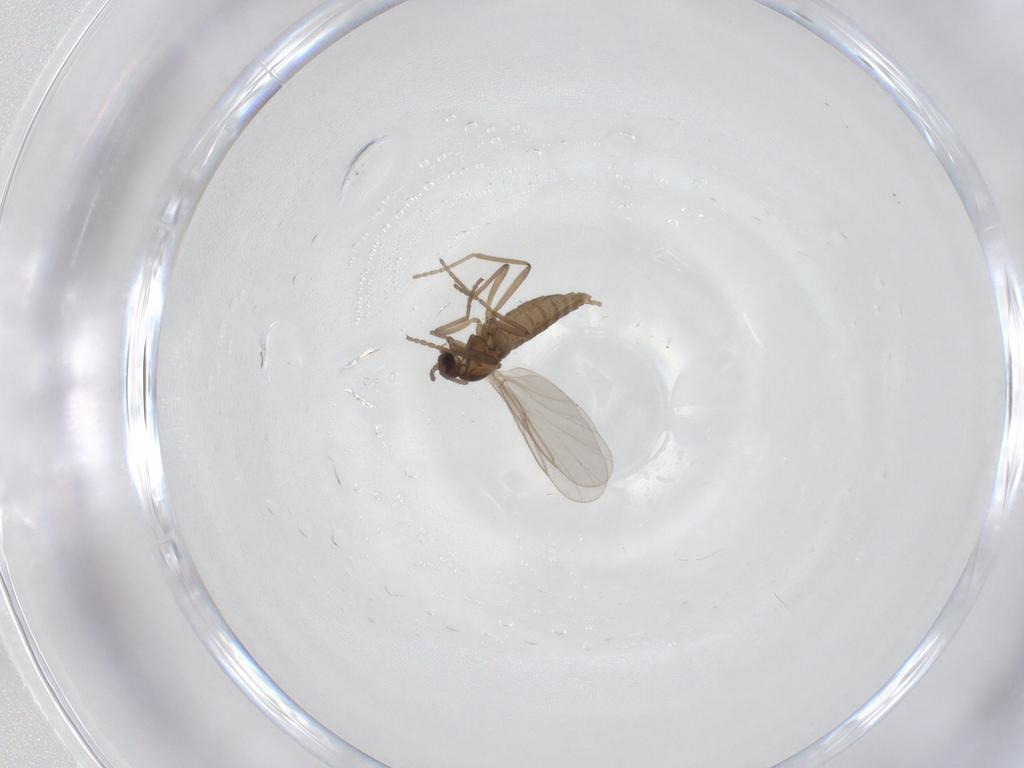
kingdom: Animalia
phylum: Arthropoda
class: Insecta
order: Diptera
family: Cecidomyiidae
